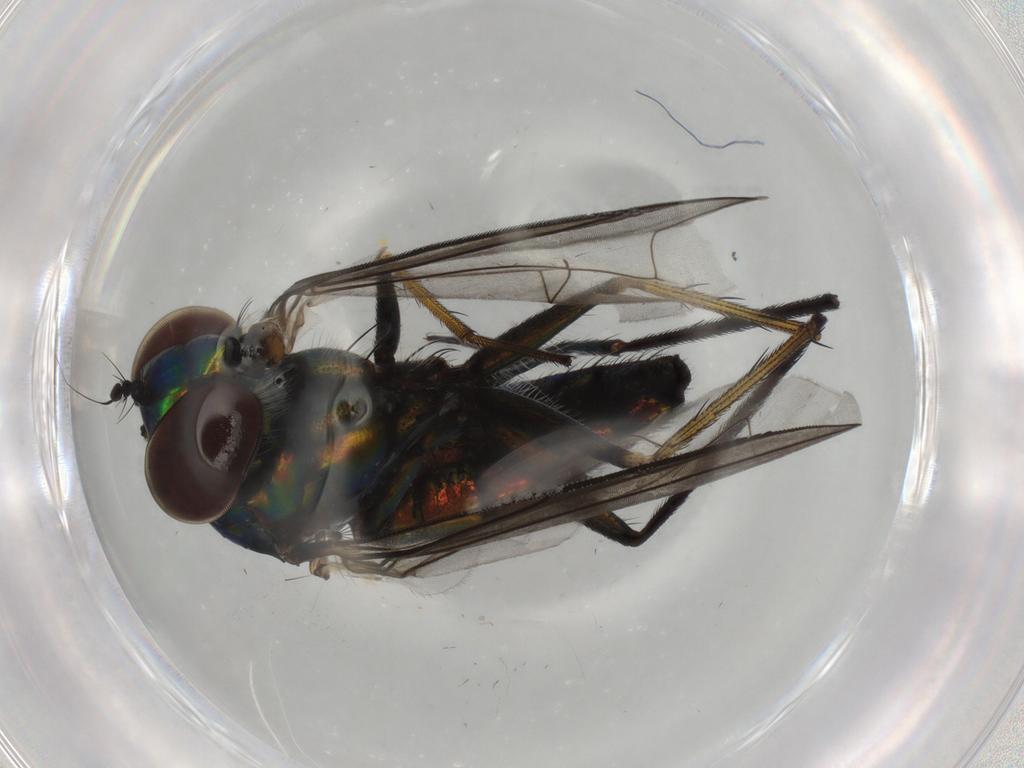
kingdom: Animalia
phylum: Arthropoda
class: Insecta
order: Diptera
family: Dolichopodidae
